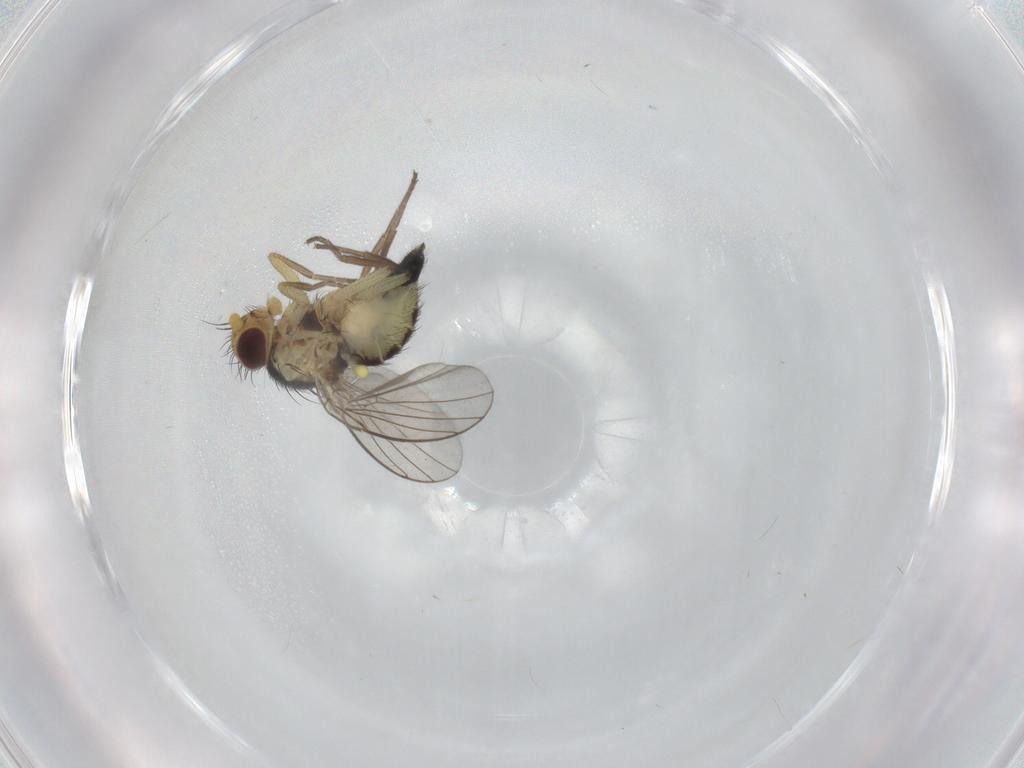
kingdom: Animalia
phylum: Arthropoda
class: Insecta
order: Diptera
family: Agromyzidae
